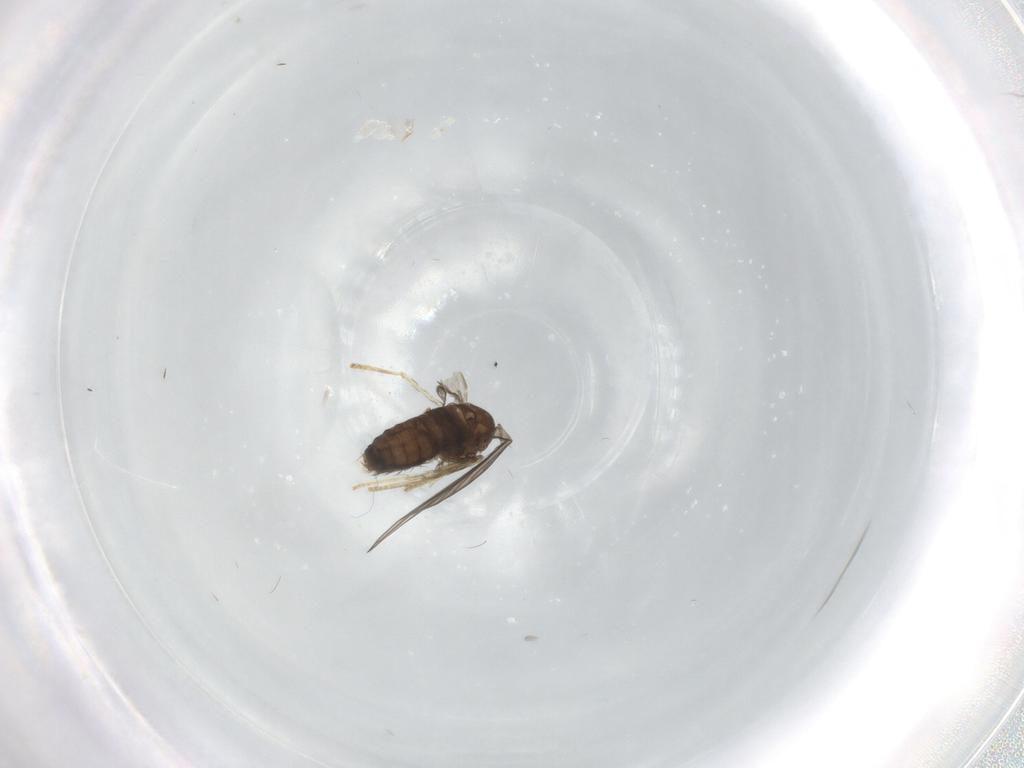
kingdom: Animalia
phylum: Arthropoda
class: Insecta
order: Diptera
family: Psychodidae
